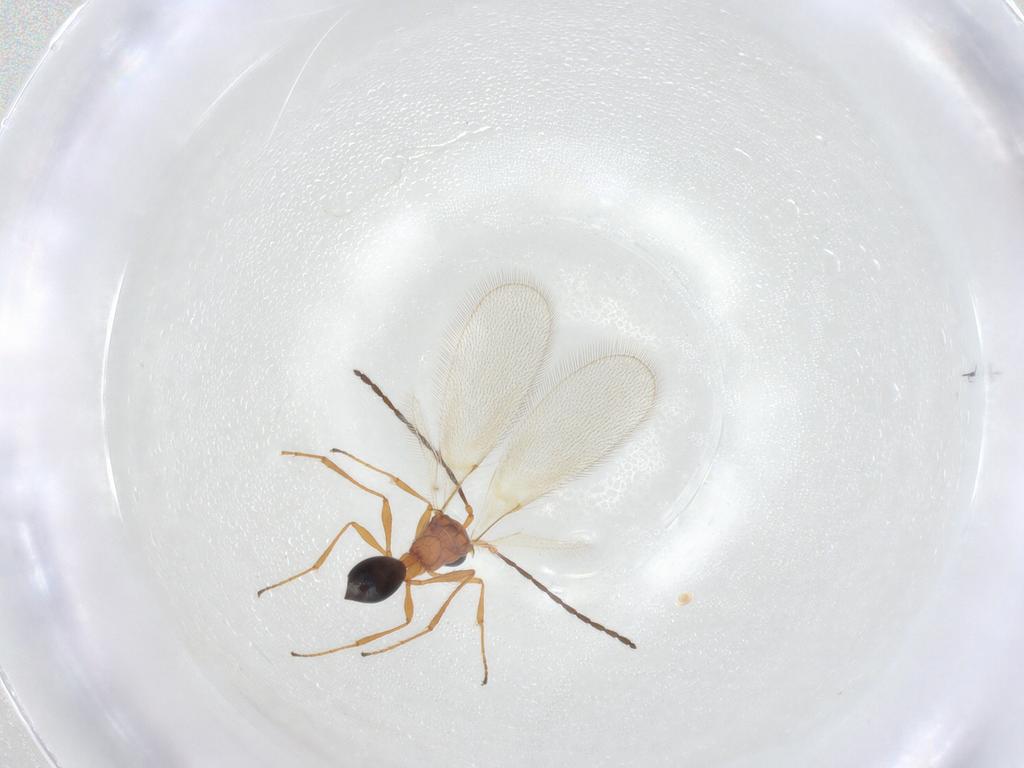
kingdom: Animalia
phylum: Arthropoda
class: Insecta
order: Hymenoptera
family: Diapriidae
